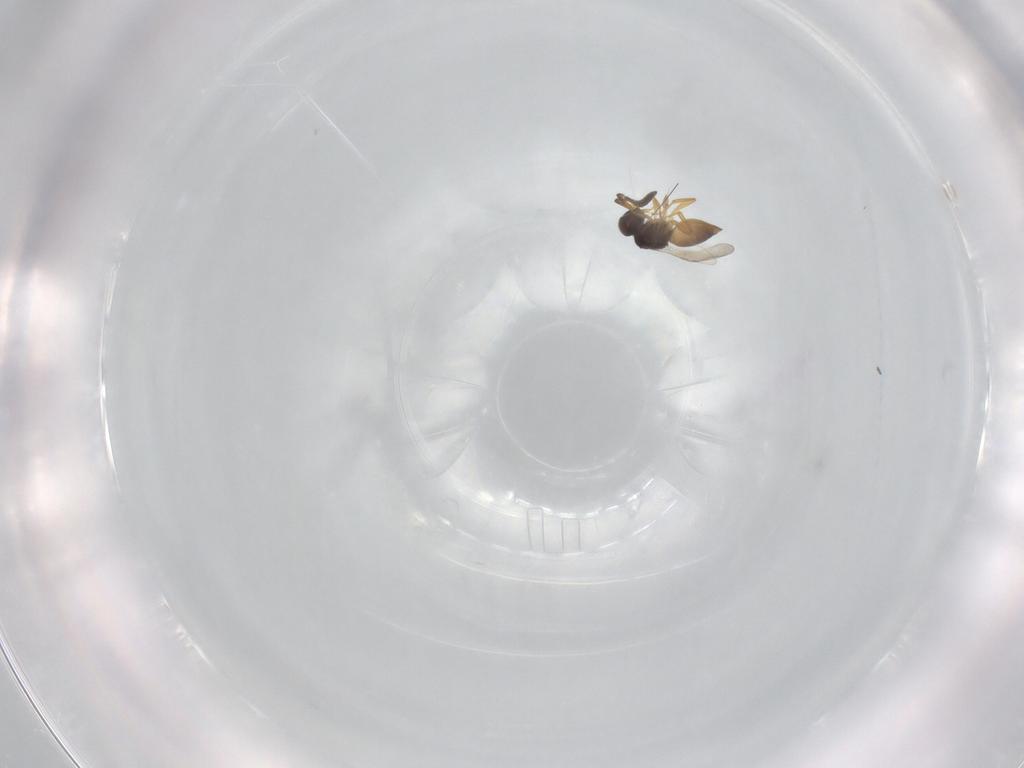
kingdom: Animalia
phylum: Arthropoda
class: Insecta
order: Hymenoptera
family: Mymaridae
